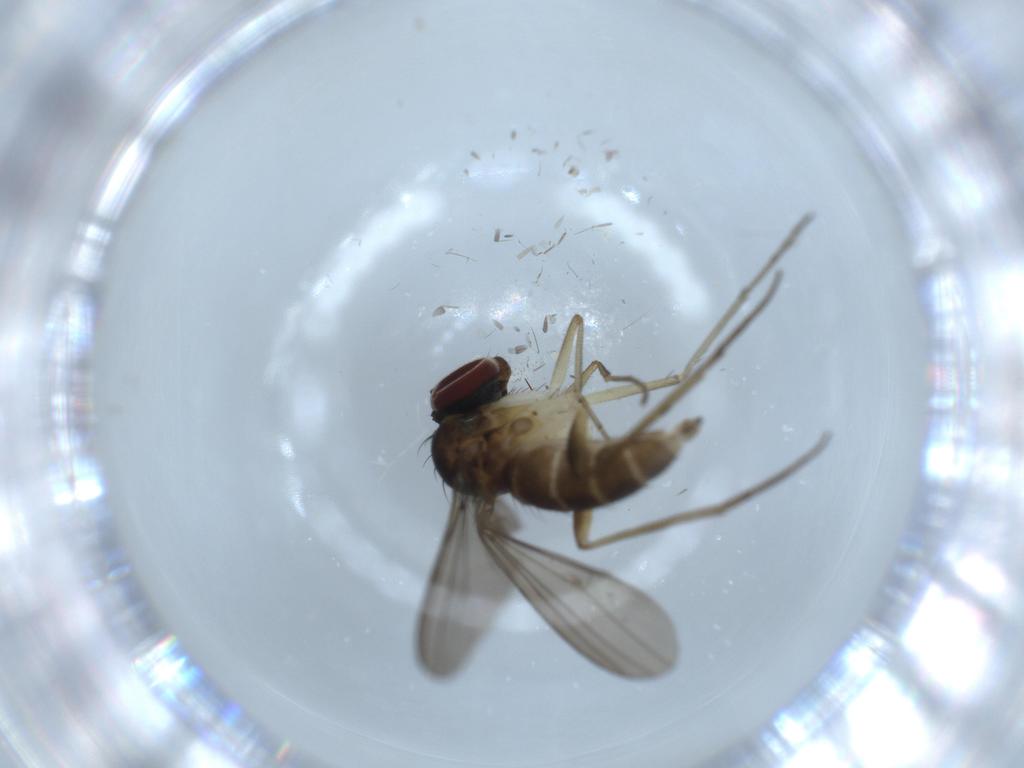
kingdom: Animalia
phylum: Arthropoda
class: Insecta
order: Diptera
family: Dolichopodidae
